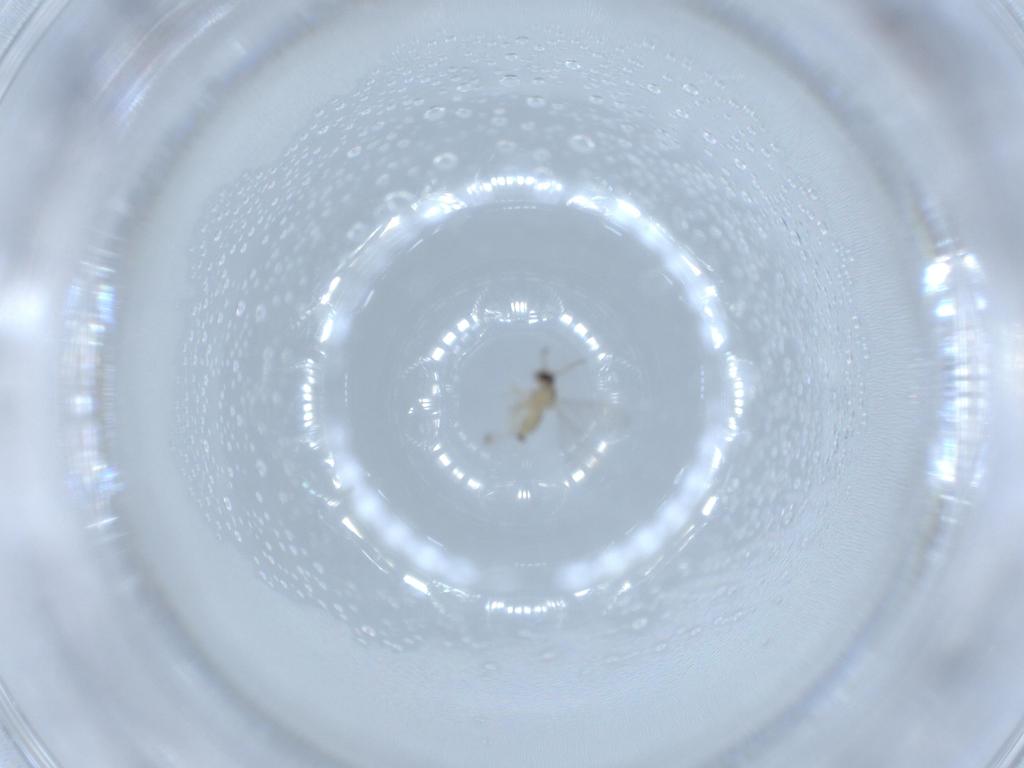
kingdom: Animalia
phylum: Arthropoda
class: Insecta
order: Diptera
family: Cecidomyiidae
